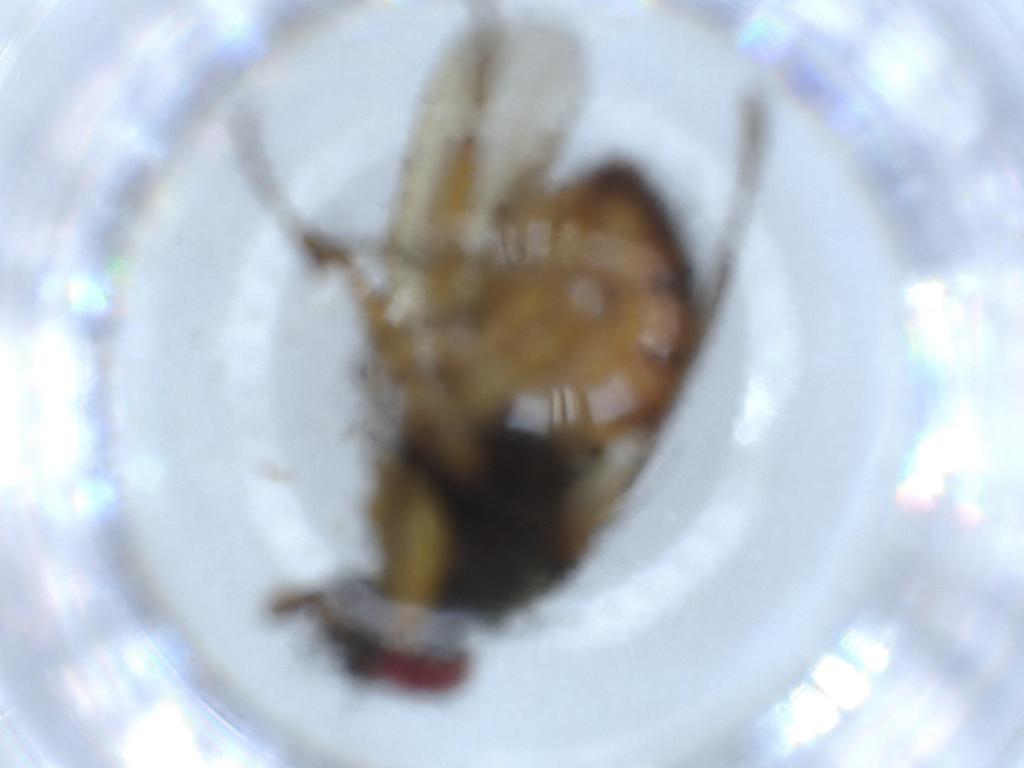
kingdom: Animalia
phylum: Arthropoda
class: Insecta
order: Diptera
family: Muscidae
